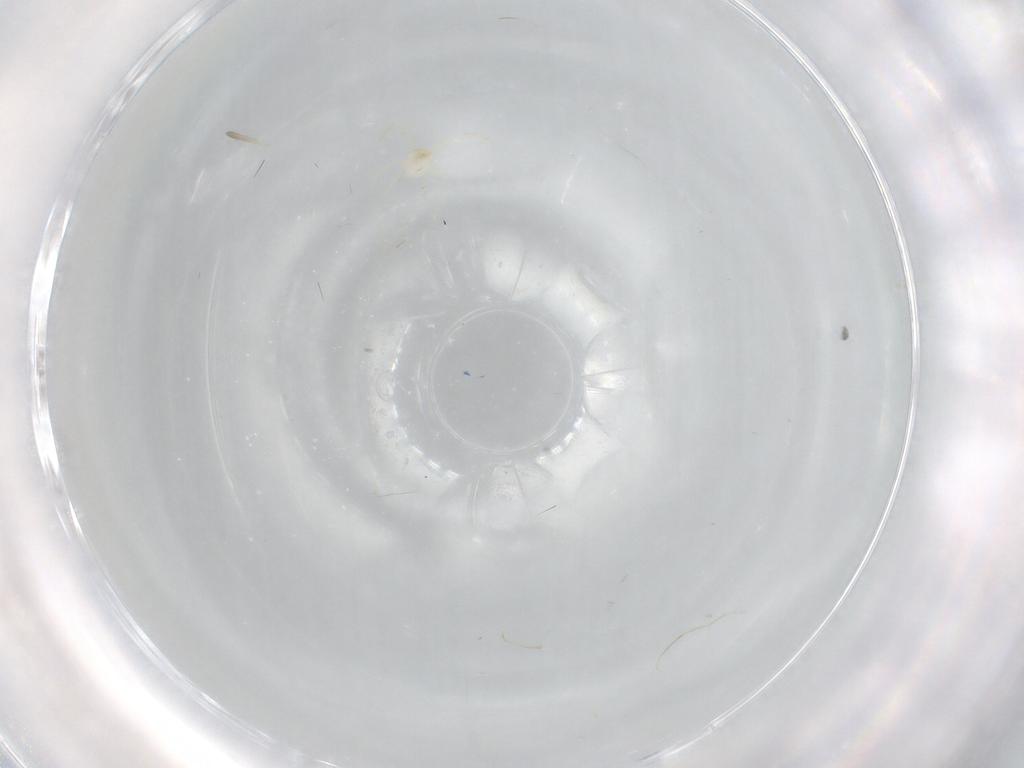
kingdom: Animalia
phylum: Arthropoda
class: Arachnida
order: Trombidiformes
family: Erythraeidae
